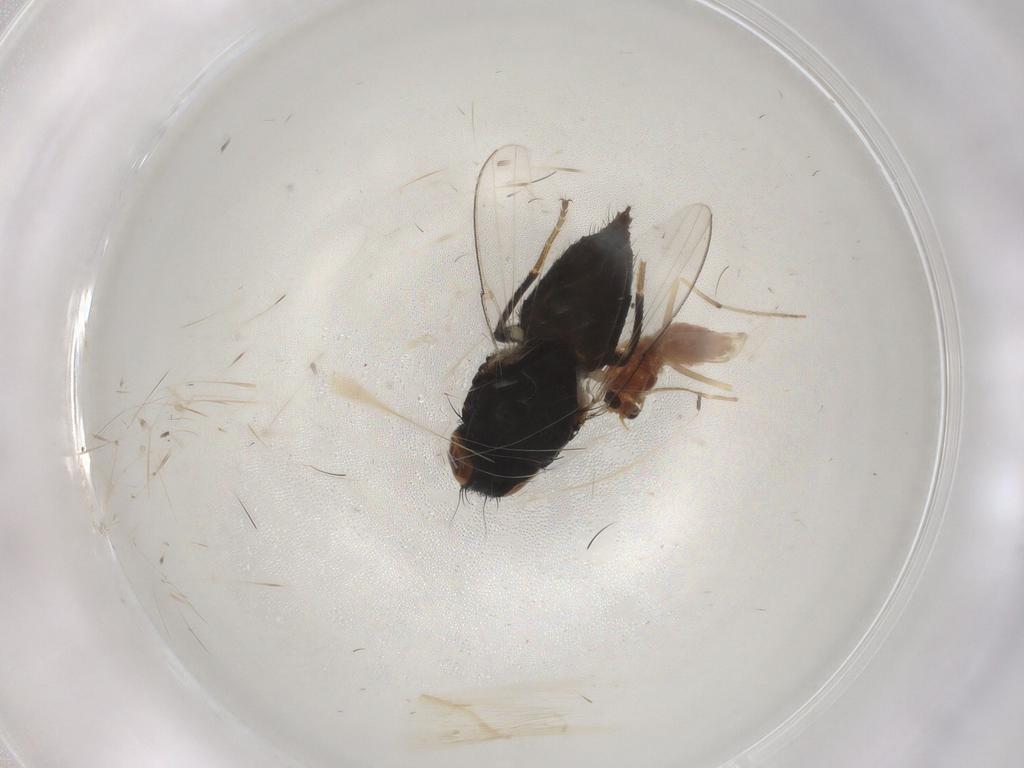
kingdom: Animalia
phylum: Arthropoda
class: Insecta
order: Diptera
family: Chironomidae
